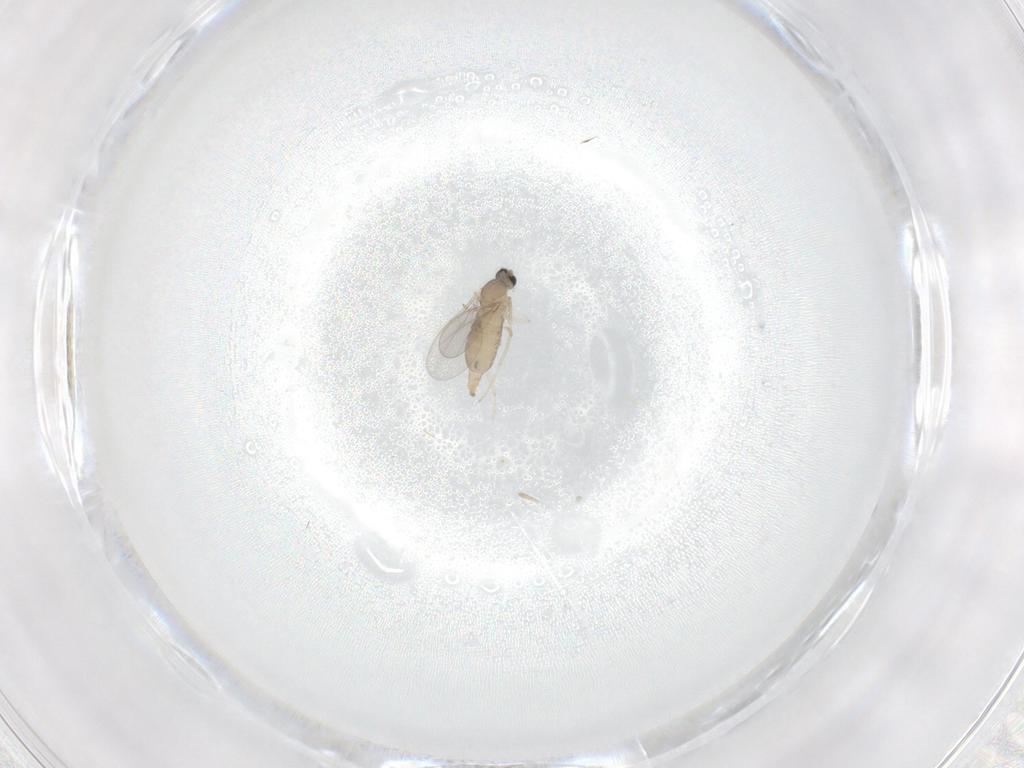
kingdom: Animalia
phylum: Arthropoda
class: Insecta
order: Diptera
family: Cecidomyiidae
